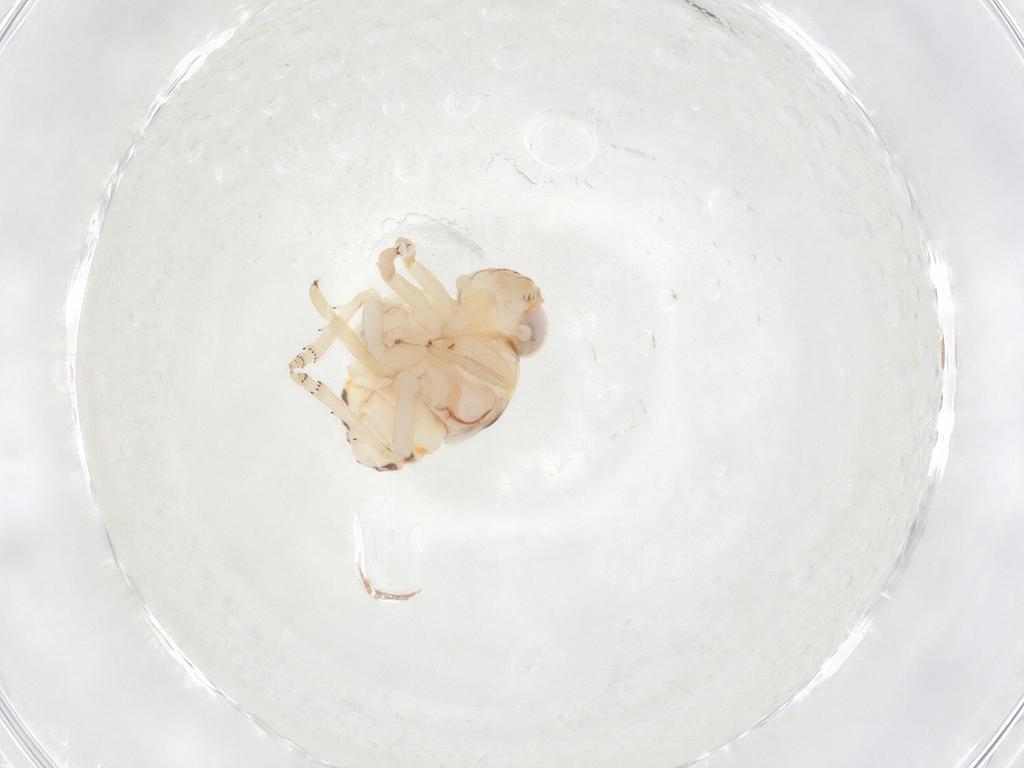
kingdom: Animalia
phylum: Arthropoda
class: Insecta
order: Hemiptera
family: Nogodinidae
